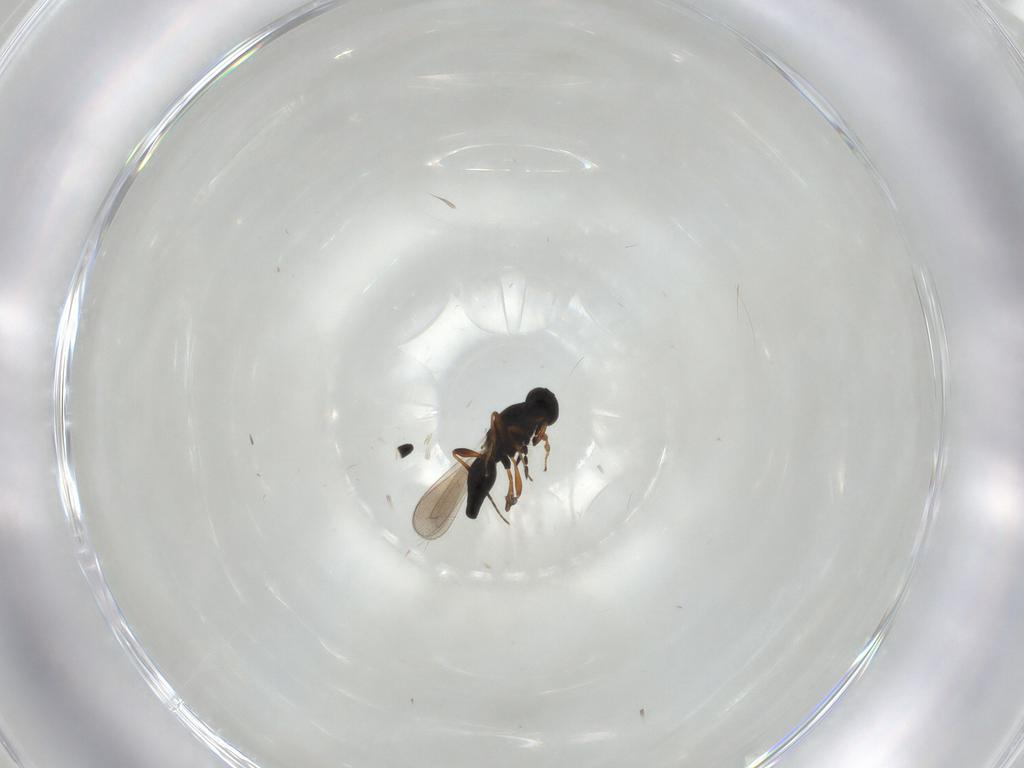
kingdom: Animalia
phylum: Arthropoda
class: Insecta
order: Hymenoptera
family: Platygastridae
